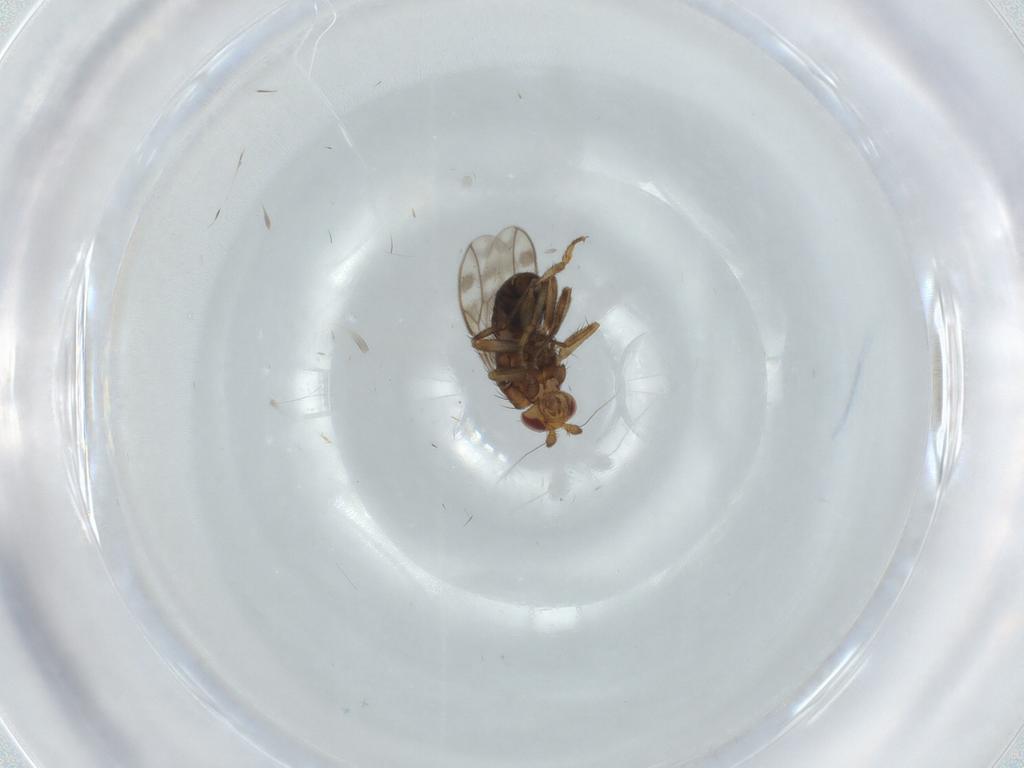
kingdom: Animalia
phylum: Arthropoda
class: Insecta
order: Diptera
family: Sphaeroceridae
